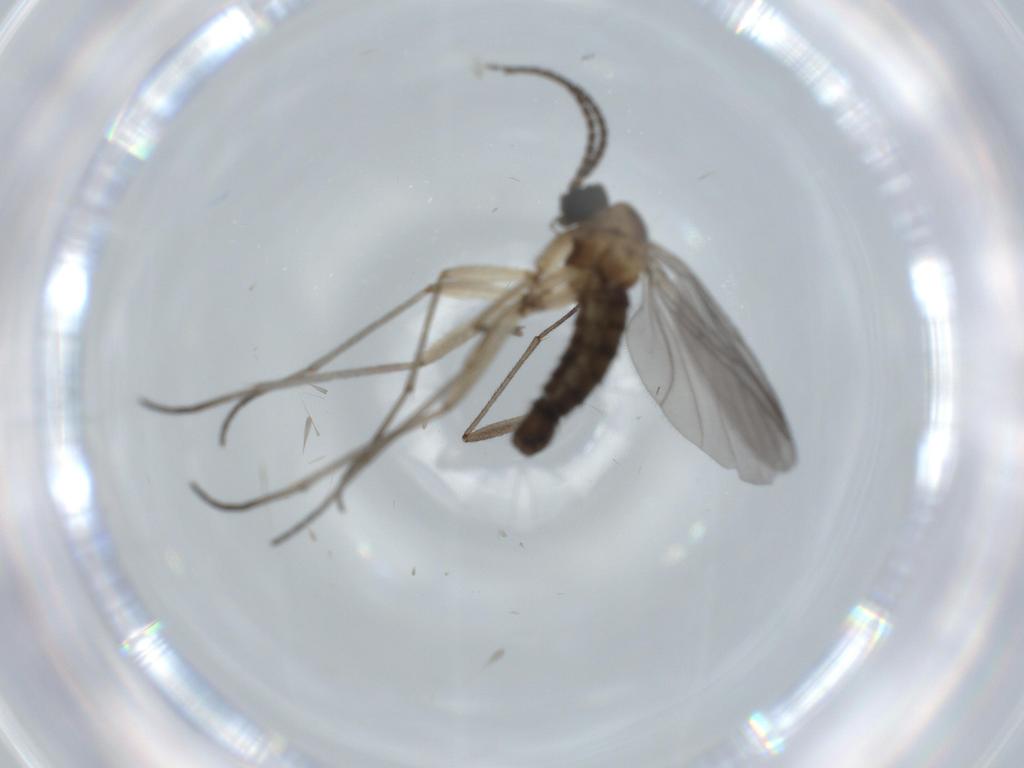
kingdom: Animalia
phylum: Arthropoda
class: Insecta
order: Diptera
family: Sciaridae
